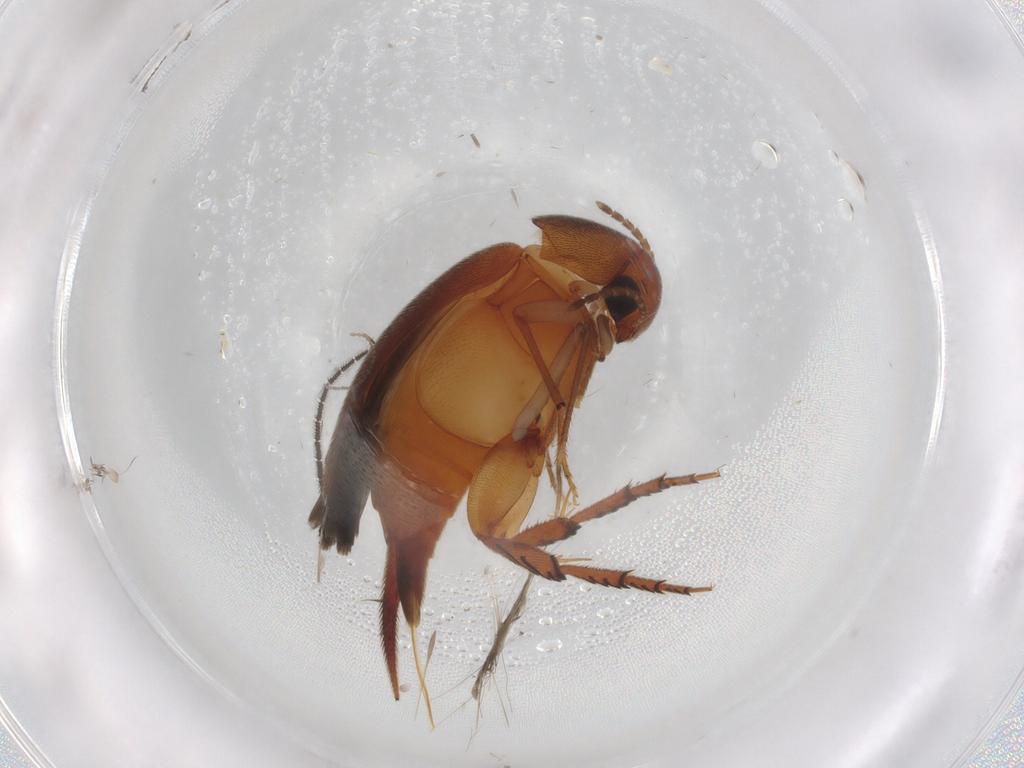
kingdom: Animalia
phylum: Arthropoda
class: Insecta
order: Coleoptera
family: Mordellidae
